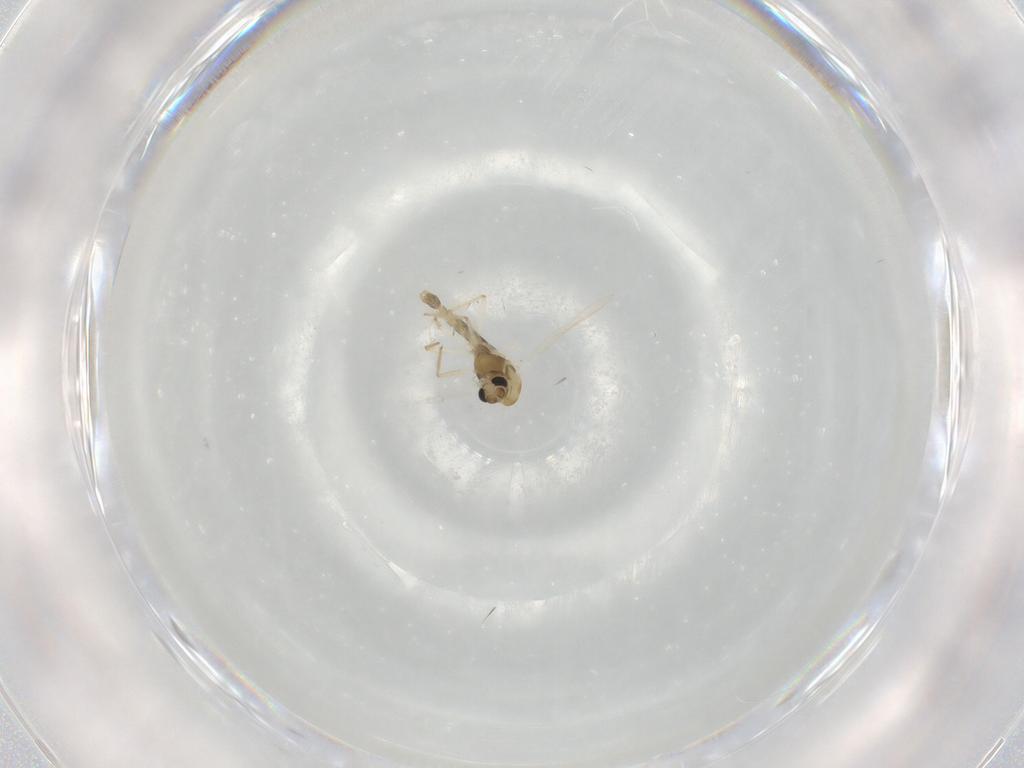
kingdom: Animalia
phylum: Arthropoda
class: Insecta
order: Diptera
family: Chironomidae
